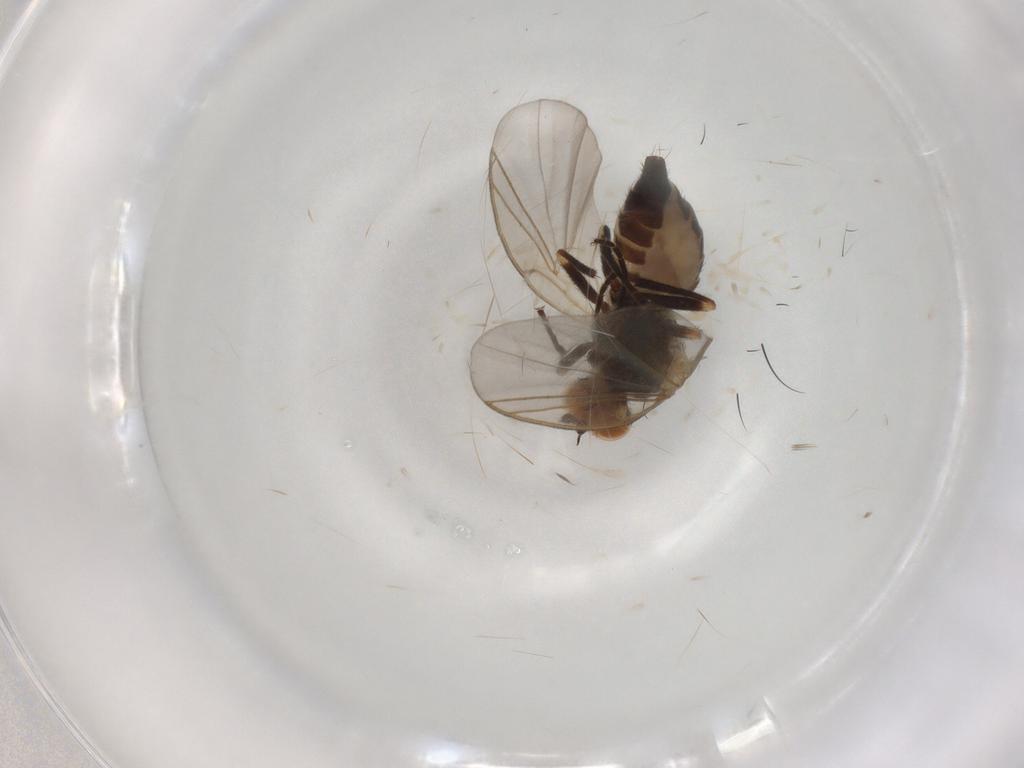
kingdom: Animalia
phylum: Arthropoda
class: Insecta
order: Diptera
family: Muscidae
